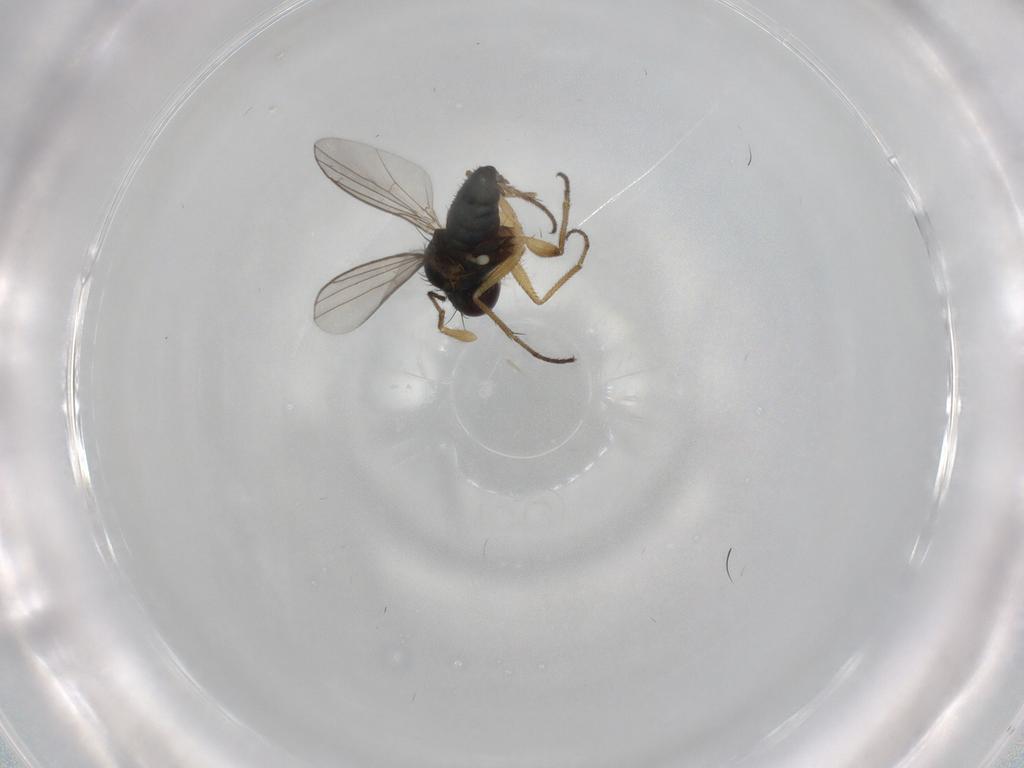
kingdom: Animalia
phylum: Arthropoda
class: Insecta
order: Diptera
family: Dolichopodidae
